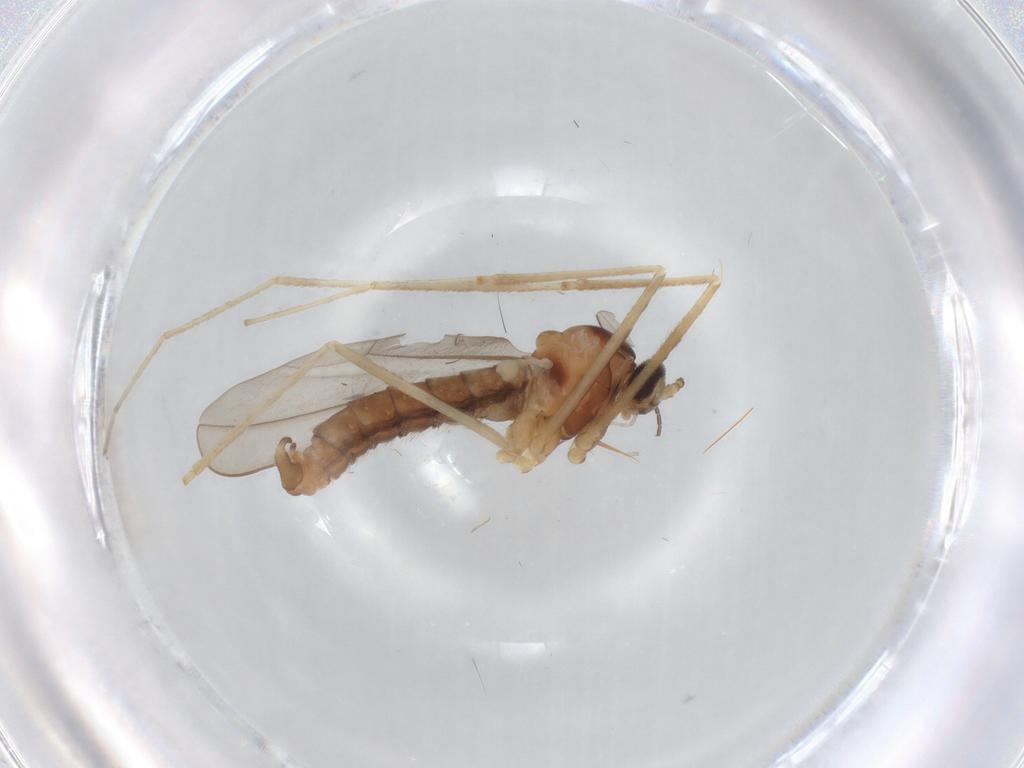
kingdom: Animalia
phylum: Arthropoda
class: Insecta
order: Diptera
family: Cecidomyiidae
